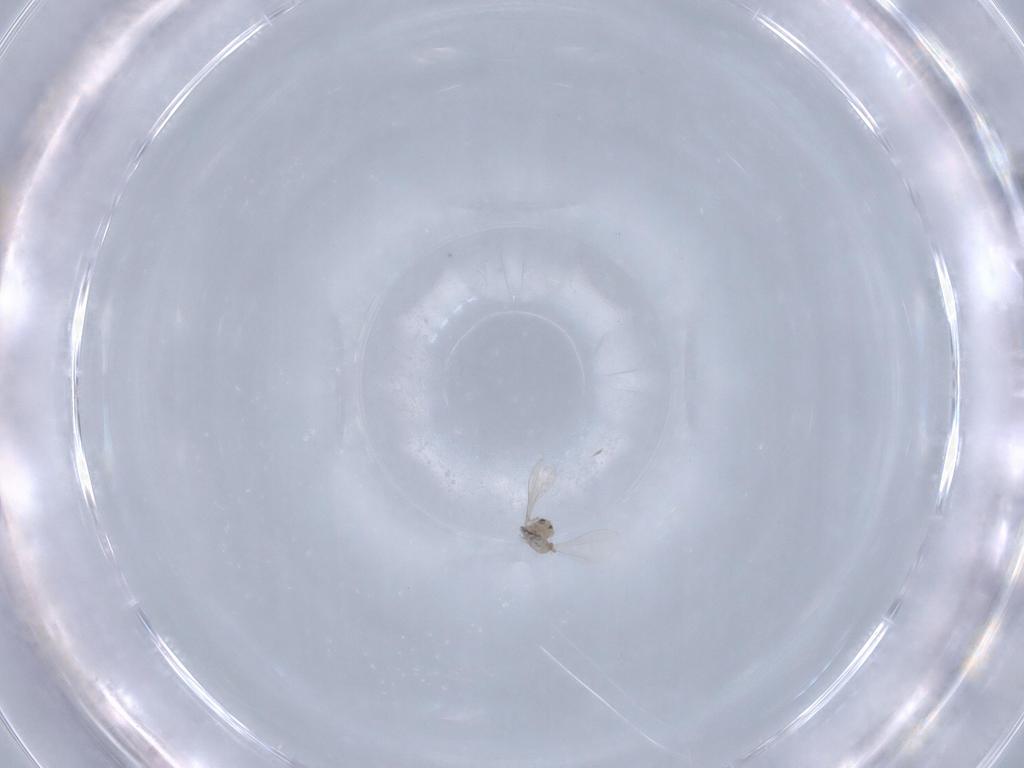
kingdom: Animalia
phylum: Arthropoda
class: Insecta
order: Diptera
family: Chironomidae
